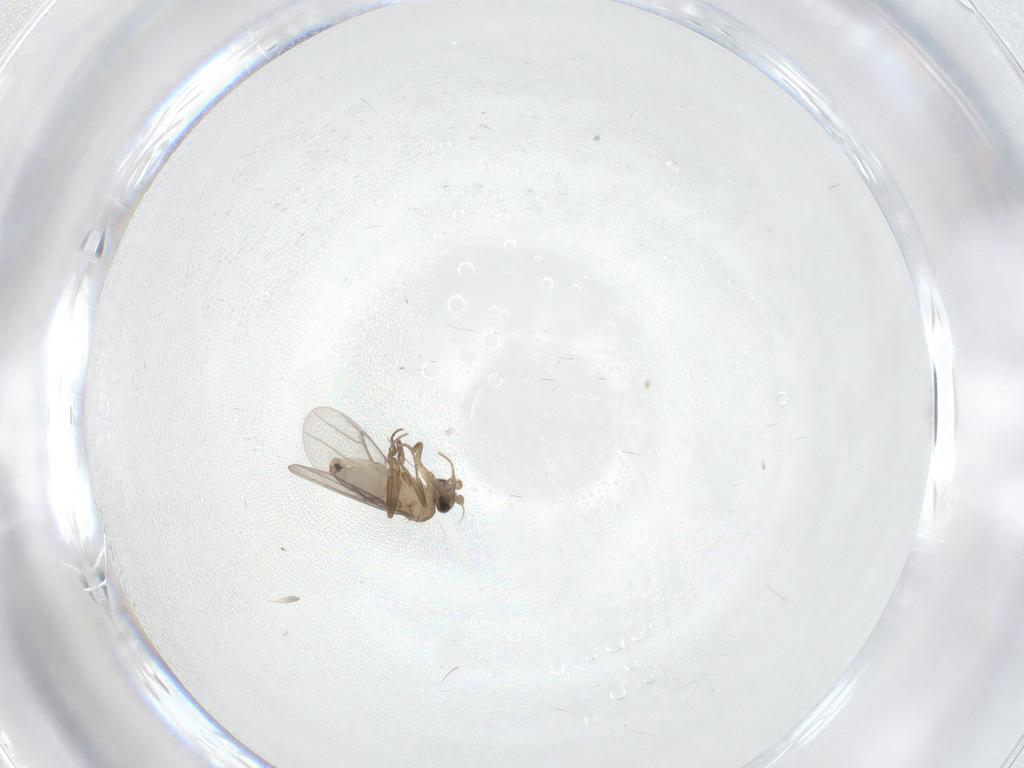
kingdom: Animalia
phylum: Arthropoda
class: Insecta
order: Diptera
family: Cecidomyiidae
